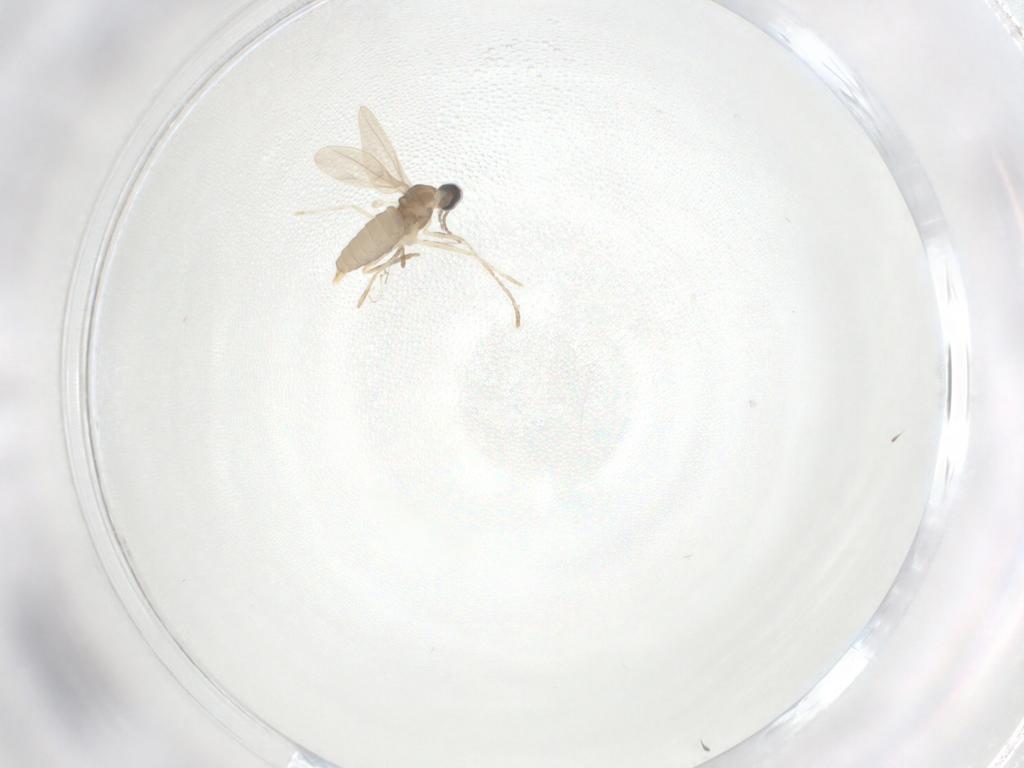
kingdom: Animalia
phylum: Arthropoda
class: Insecta
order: Diptera
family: Cecidomyiidae
